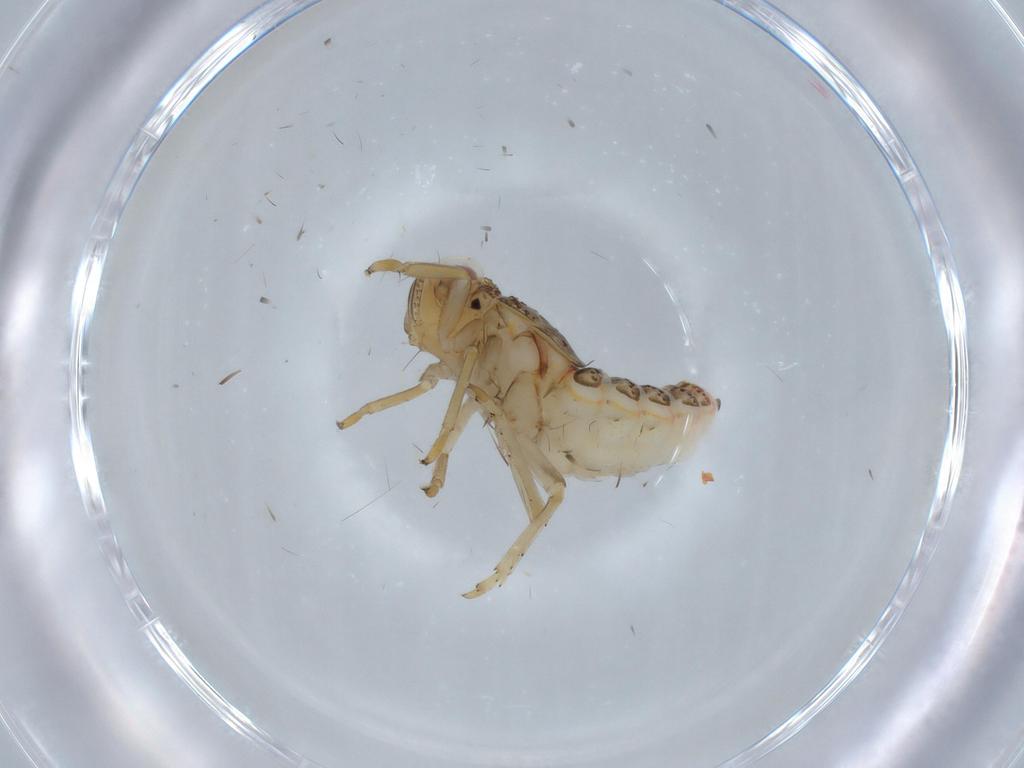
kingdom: Animalia
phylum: Arthropoda
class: Insecta
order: Hemiptera
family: Issidae
